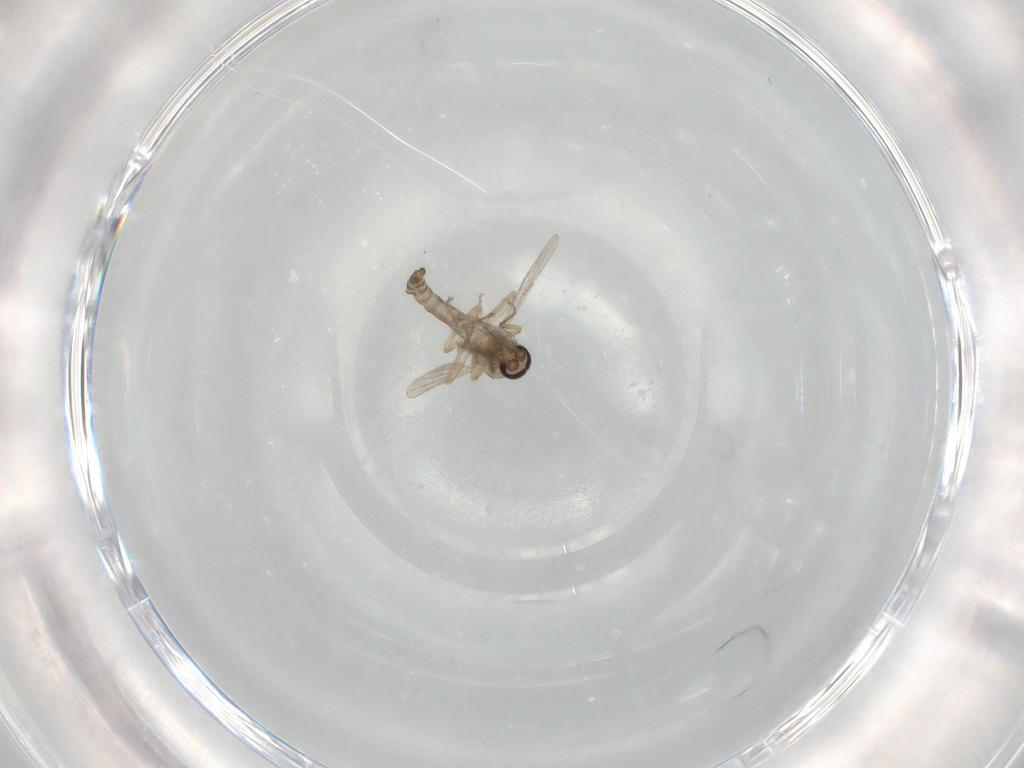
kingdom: Animalia
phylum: Arthropoda
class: Insecta
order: Diptera
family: Ceratopogonidae
